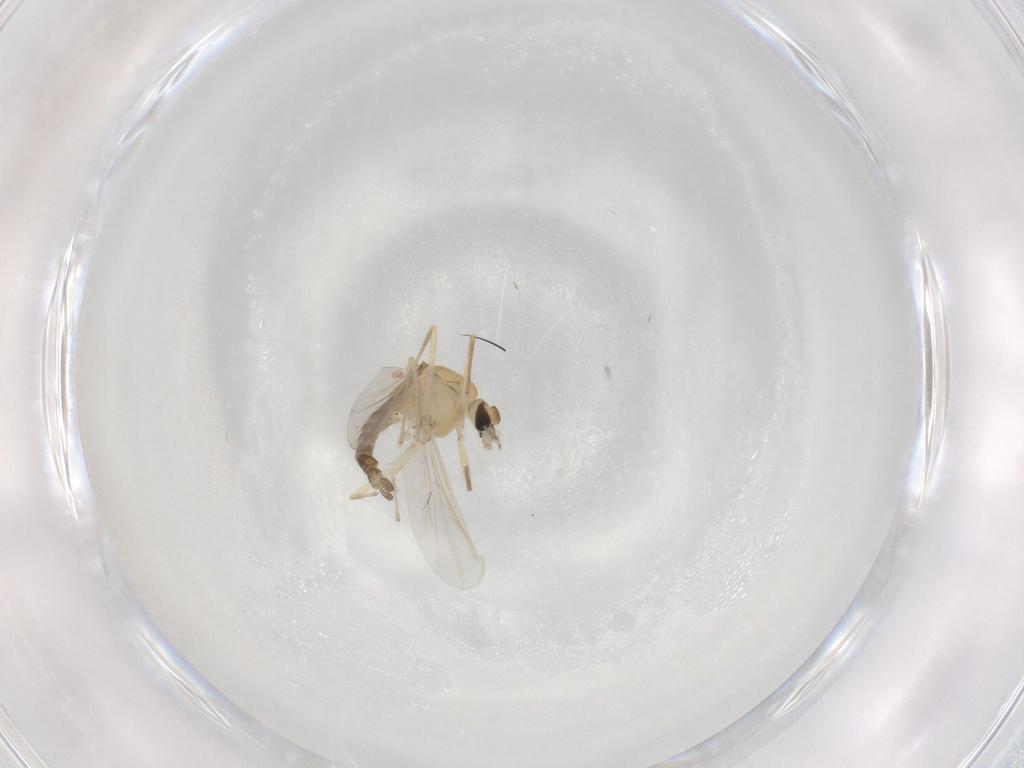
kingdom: Animalia
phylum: Arthropoda
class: Insecta
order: Diptera
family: Chironomidae
